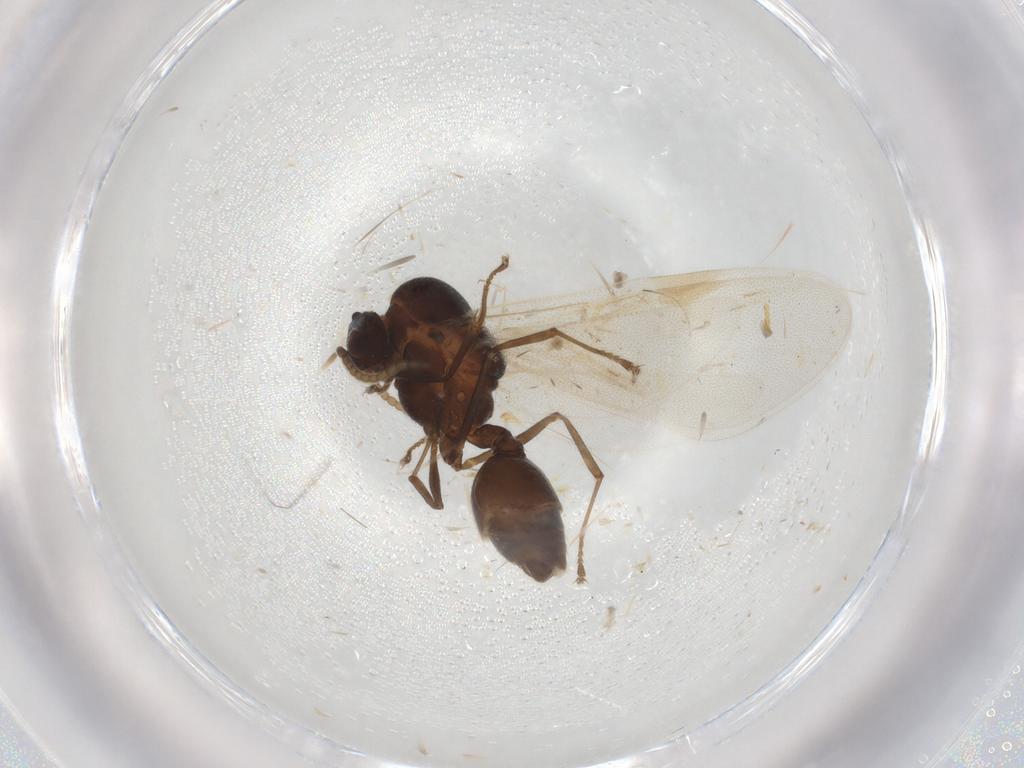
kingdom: Animalia
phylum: Arthropoda
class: Insecta
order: Hymenoptera
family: Formicidae
